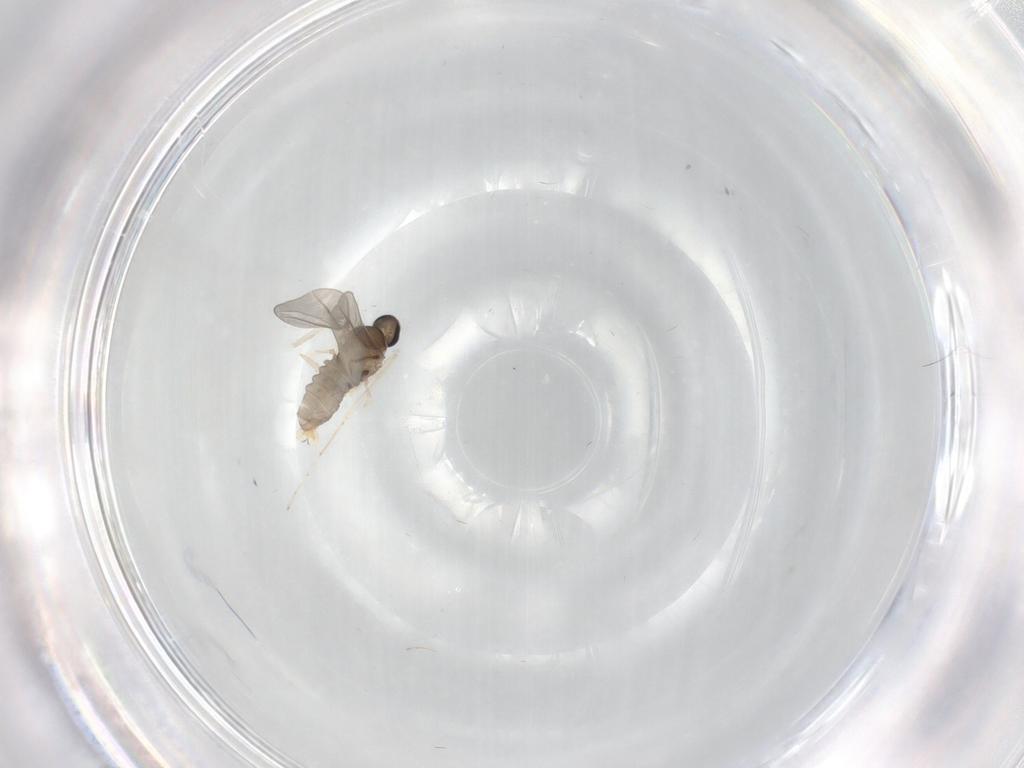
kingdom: Animalia
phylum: Arthropoda
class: Insecta
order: Diptera
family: Cecidomyiidae
